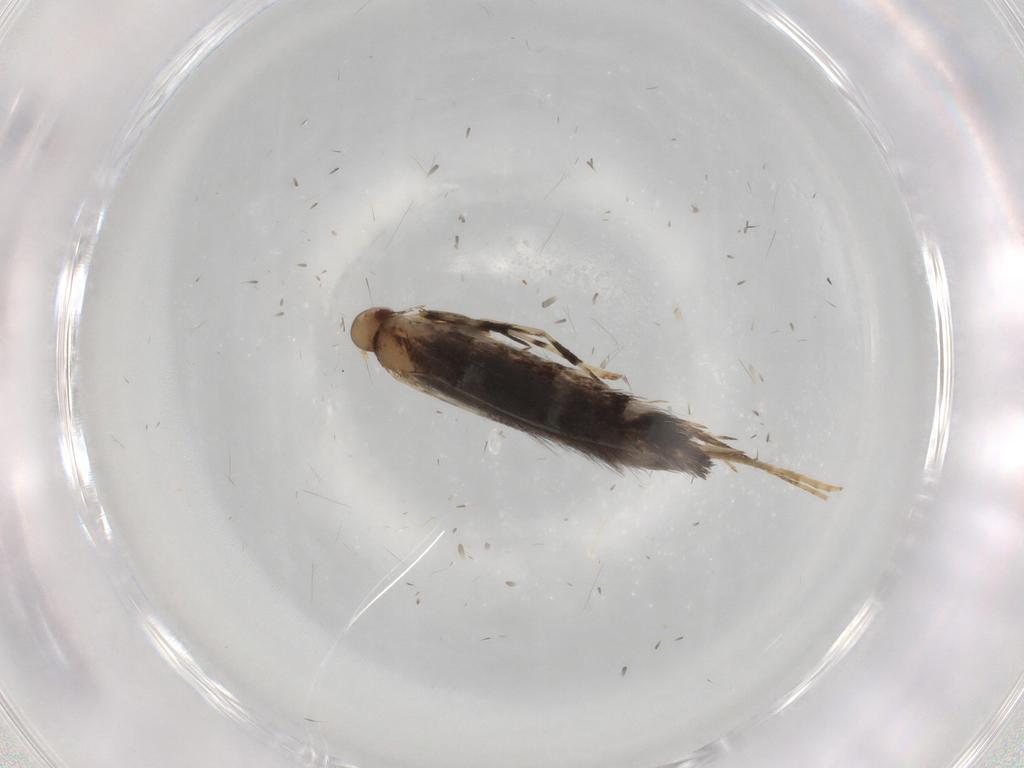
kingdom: Animalia
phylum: Arthropoda
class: Insecta
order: Lepidoptera
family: Gracillariidae
